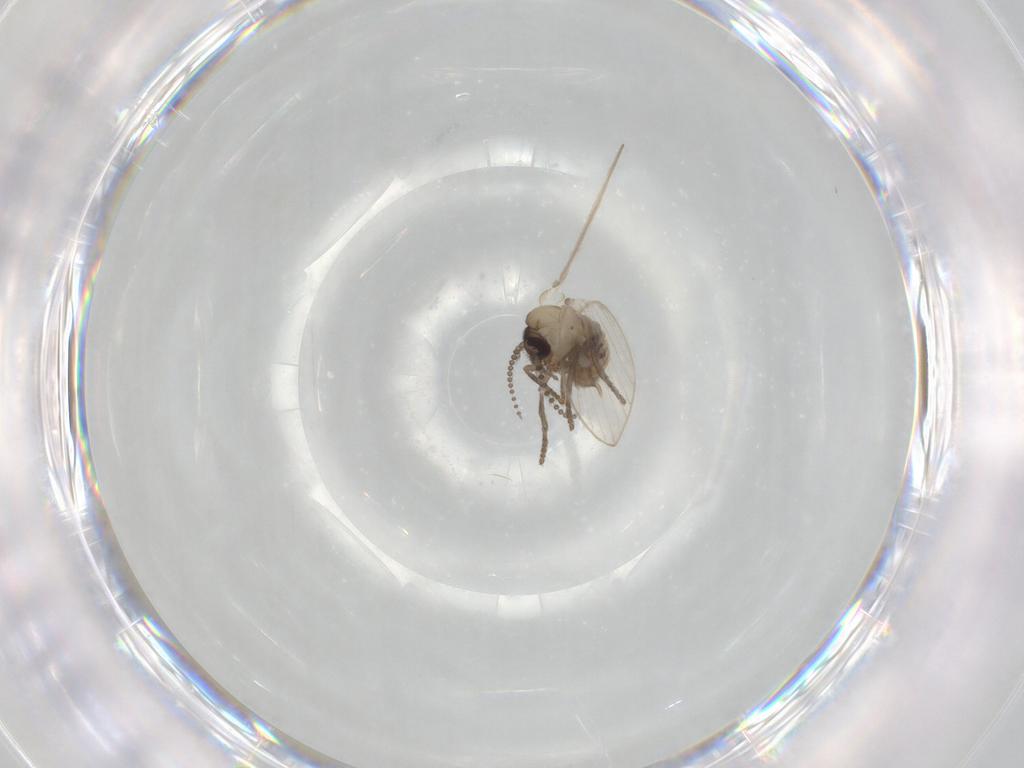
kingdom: Animalia
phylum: Arthropoda
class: Insecta
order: Diptera
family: Psychodidae
